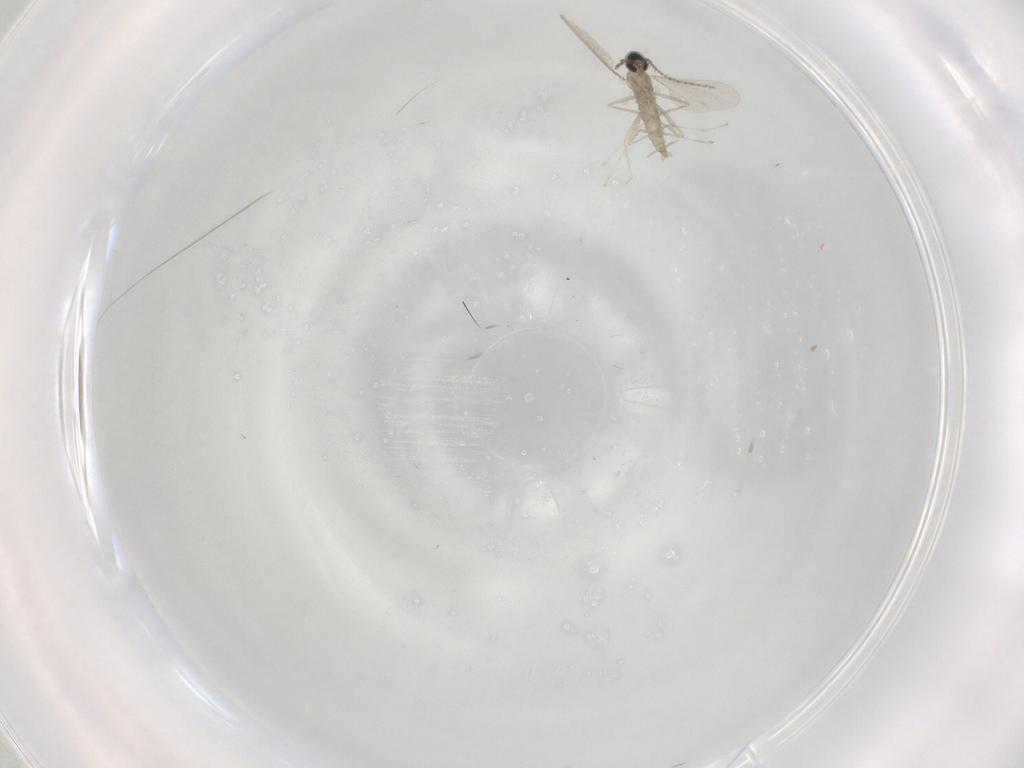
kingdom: Animalia
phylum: Arthropoda
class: Insecta
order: Diptera
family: Cecidomyiidae
